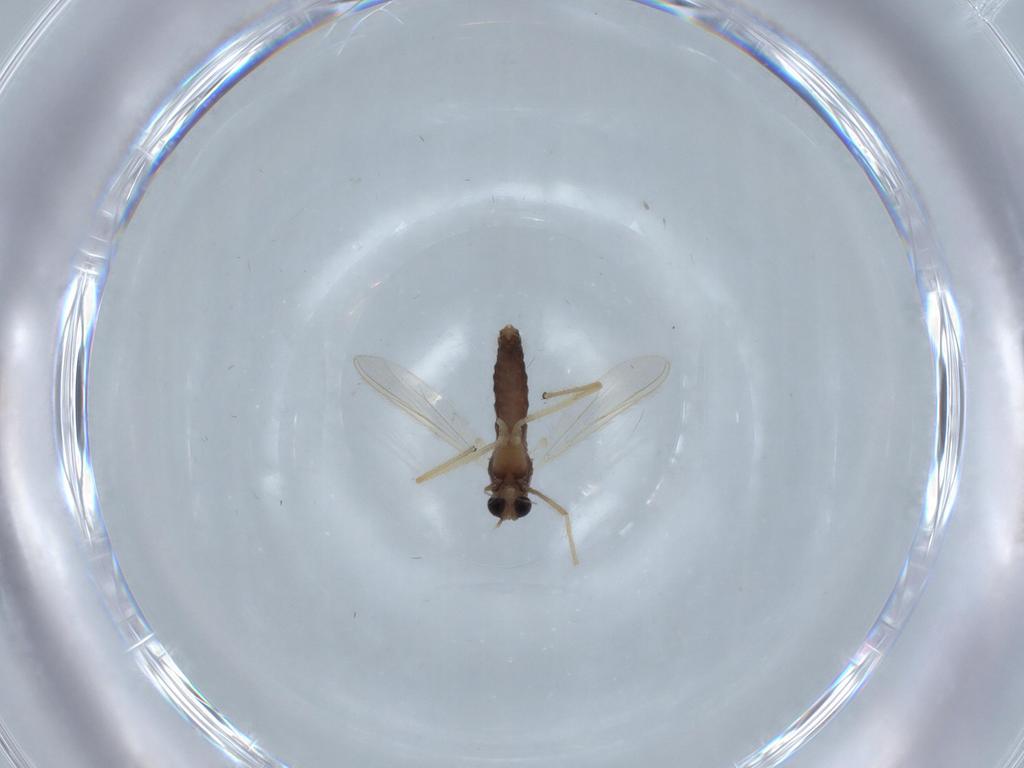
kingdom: Animalia
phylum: Arthropoda
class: Insecta
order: Diptera
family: Chironomidae
